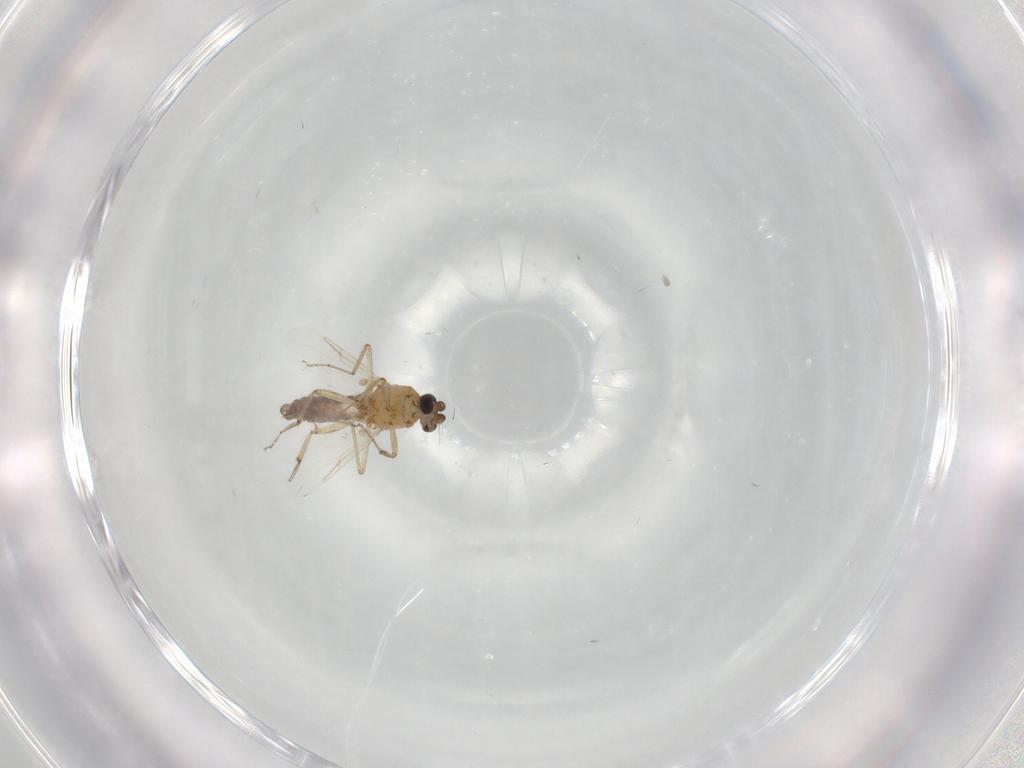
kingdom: Animalia
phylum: Arthropoda
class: Insecta
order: Diptera
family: Ceratopogonidae
